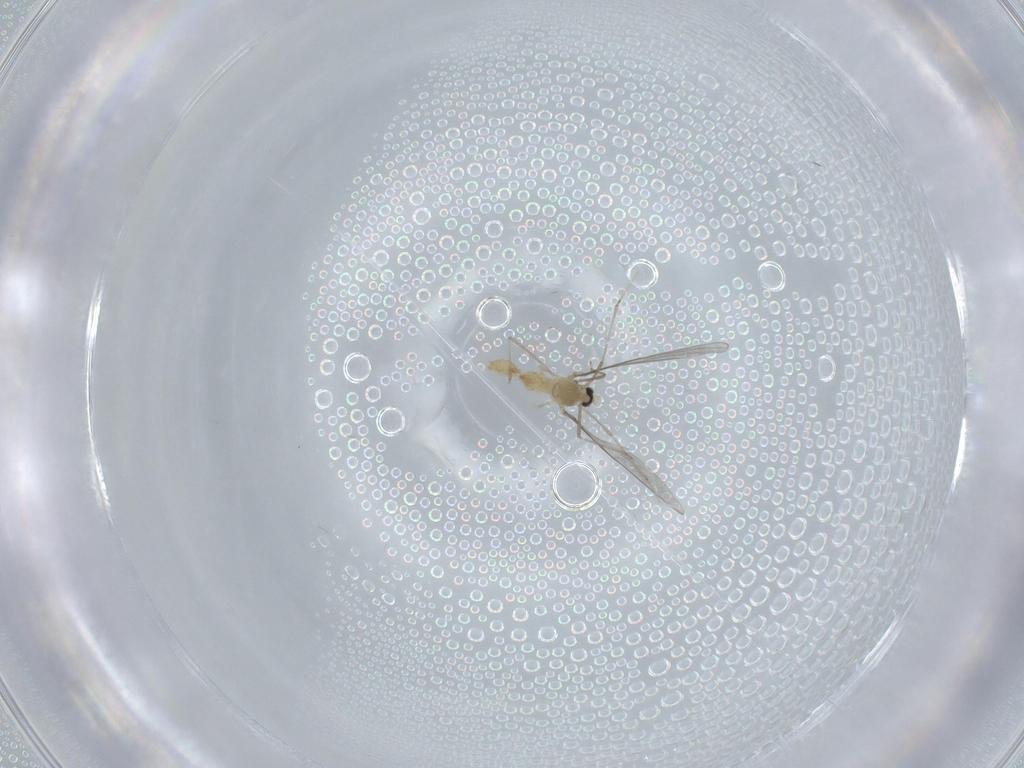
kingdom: Animalia
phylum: Arthropoda
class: Insecta
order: Diptera
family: Cecidomyiidae
